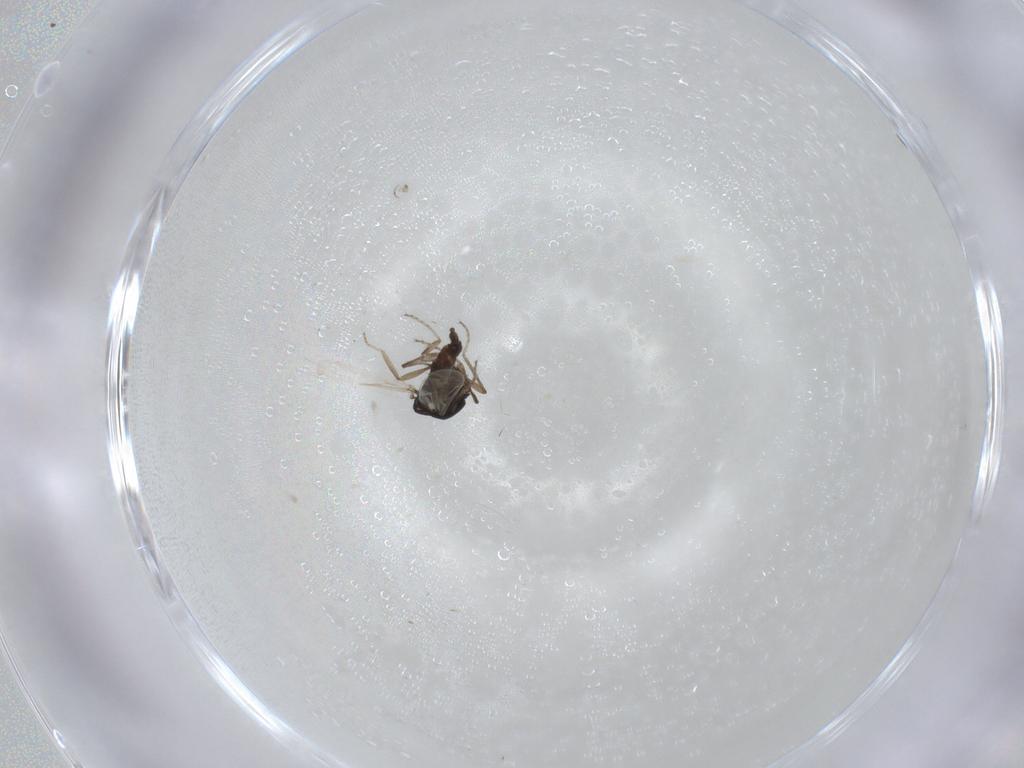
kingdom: Animalia
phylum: Arthropoda
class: Insecta
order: Diptera
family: Ceratopogonidae
